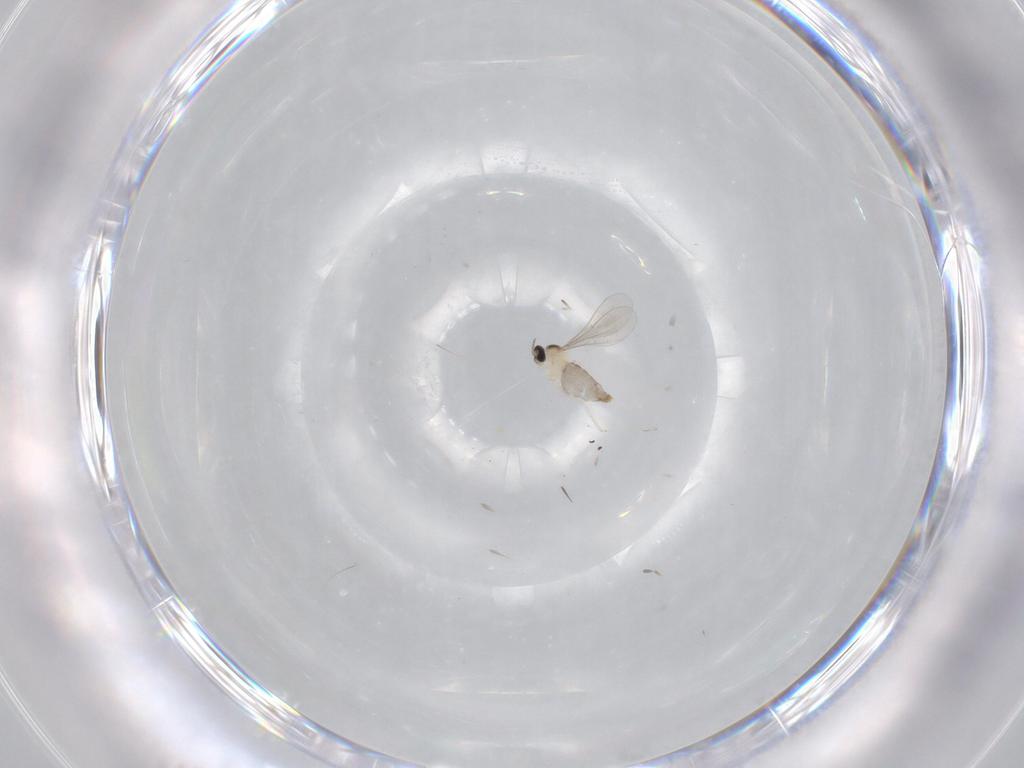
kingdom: Animalia
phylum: Arthropoda
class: Insecta
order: Diptera
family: Cecidomyiidae
